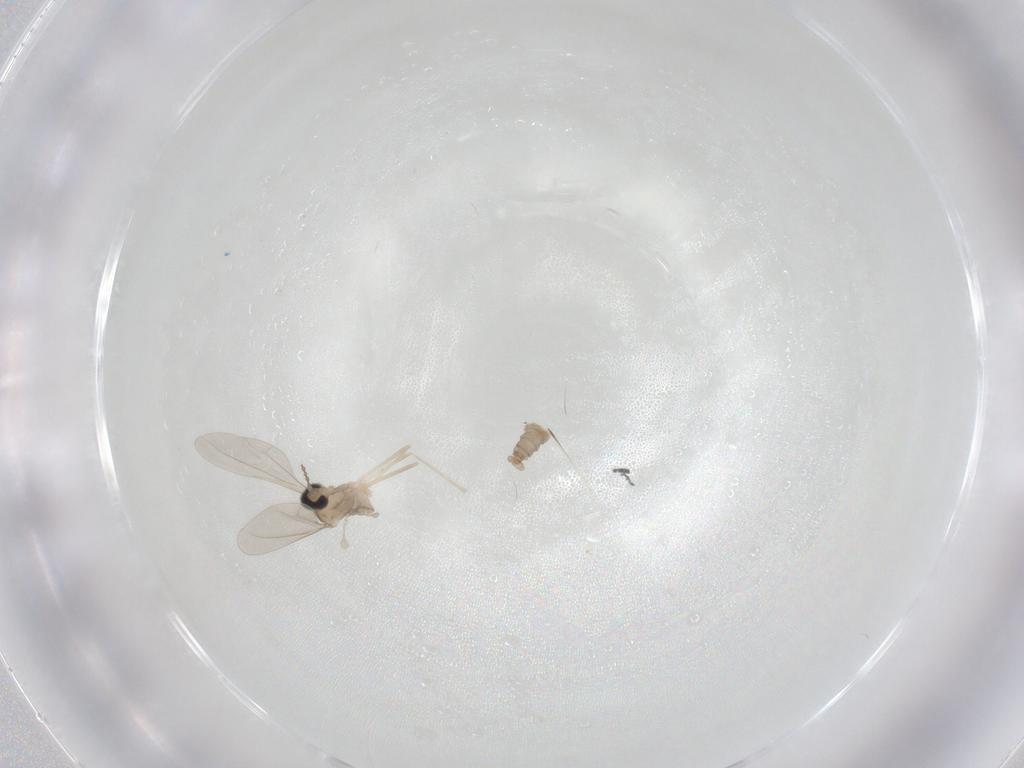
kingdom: Animalia
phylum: Arthropoda
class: Insecta
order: Diptera
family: Cecidomyiidae
